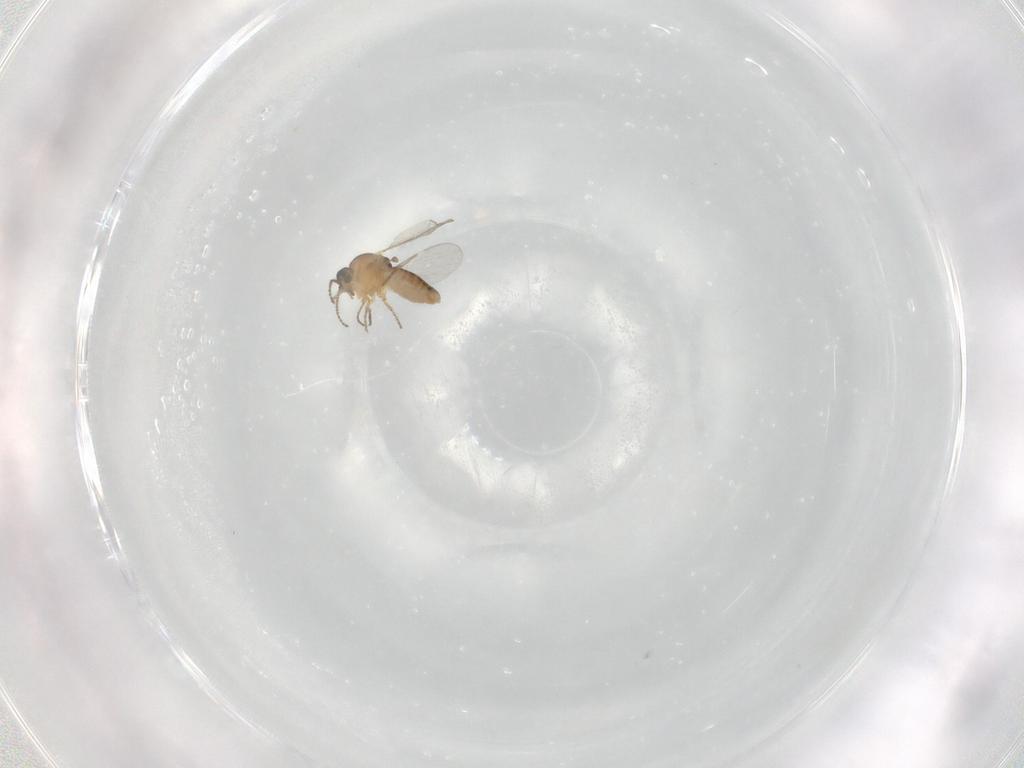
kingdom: Animalia
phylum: Arthropoda
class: Insecta
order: Diptera
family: Ceratopogonidae
